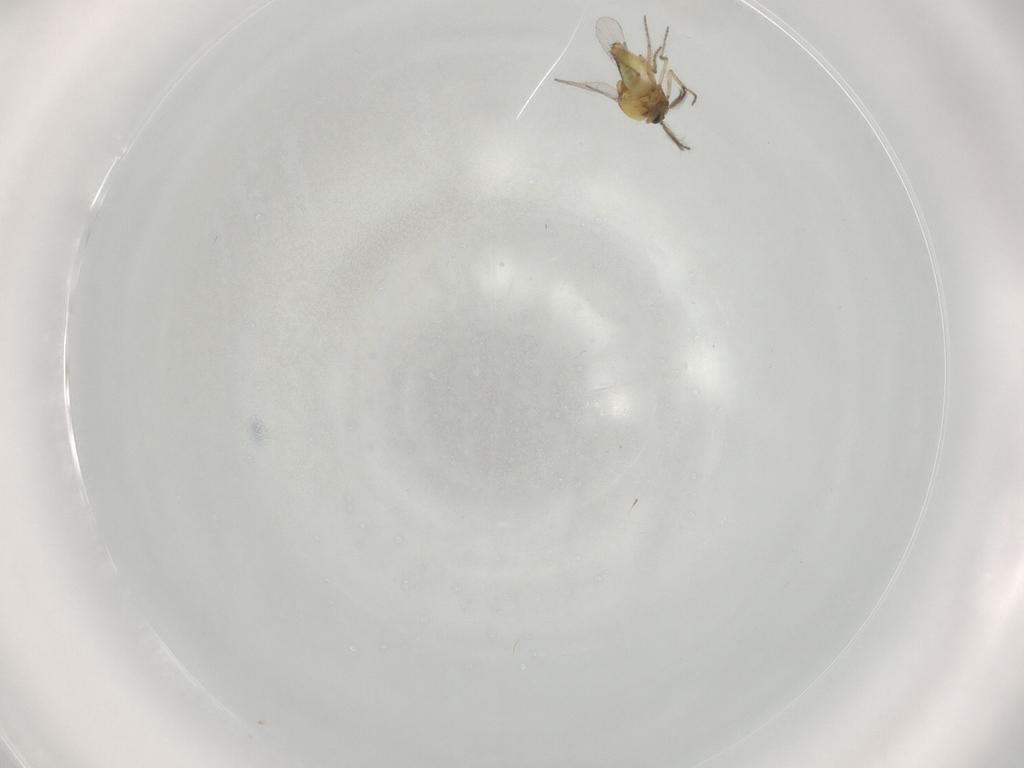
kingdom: Animalia
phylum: Arthropoda
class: Insecta
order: Diptera
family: Ceratopogonidae
